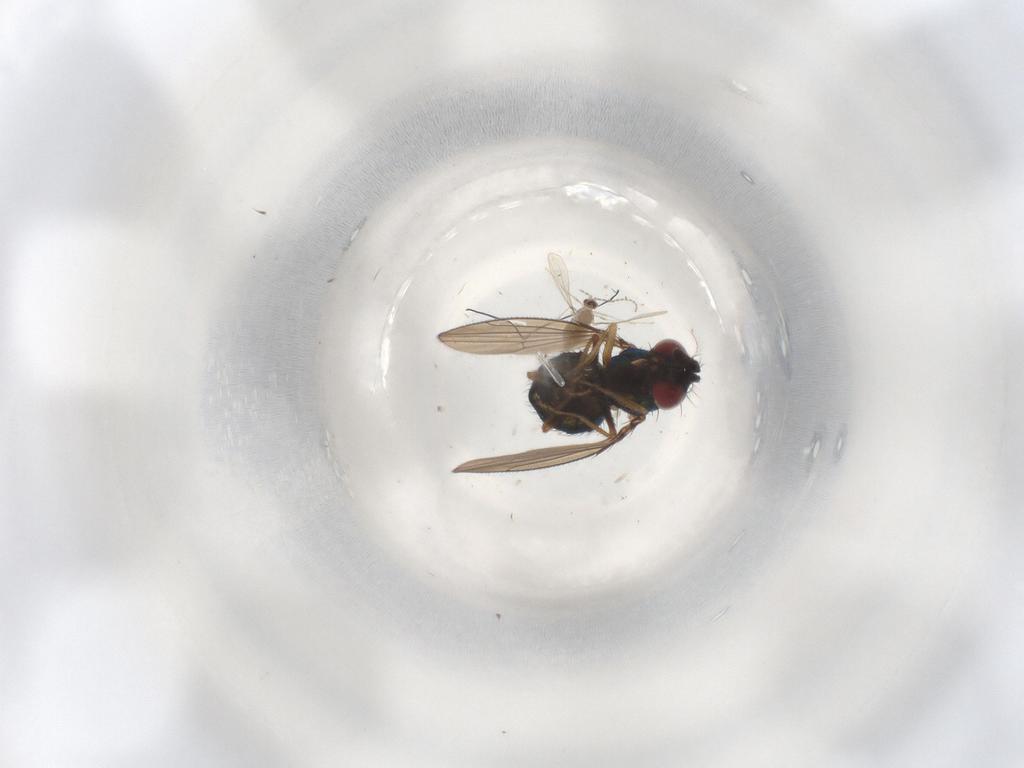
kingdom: Animalia
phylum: Arthropoda
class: Insecta
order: Diptera
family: Ephydridae
